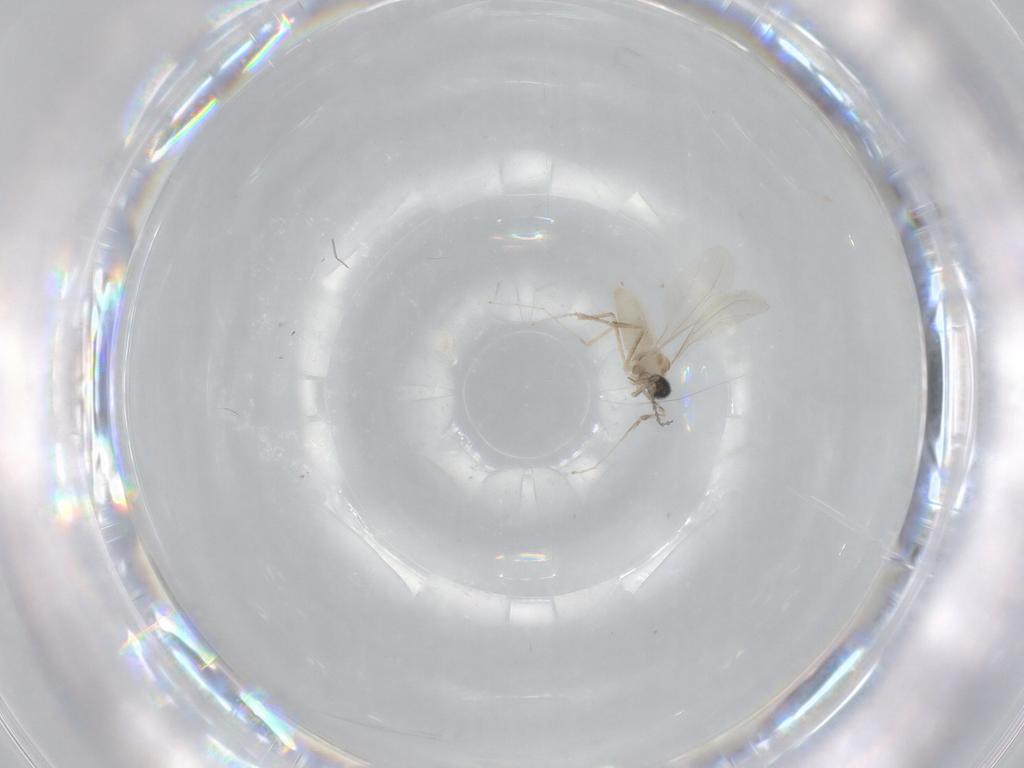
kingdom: Animalia
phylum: Arthropoda
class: Insecta
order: Diptera
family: Cecidomyiidae
